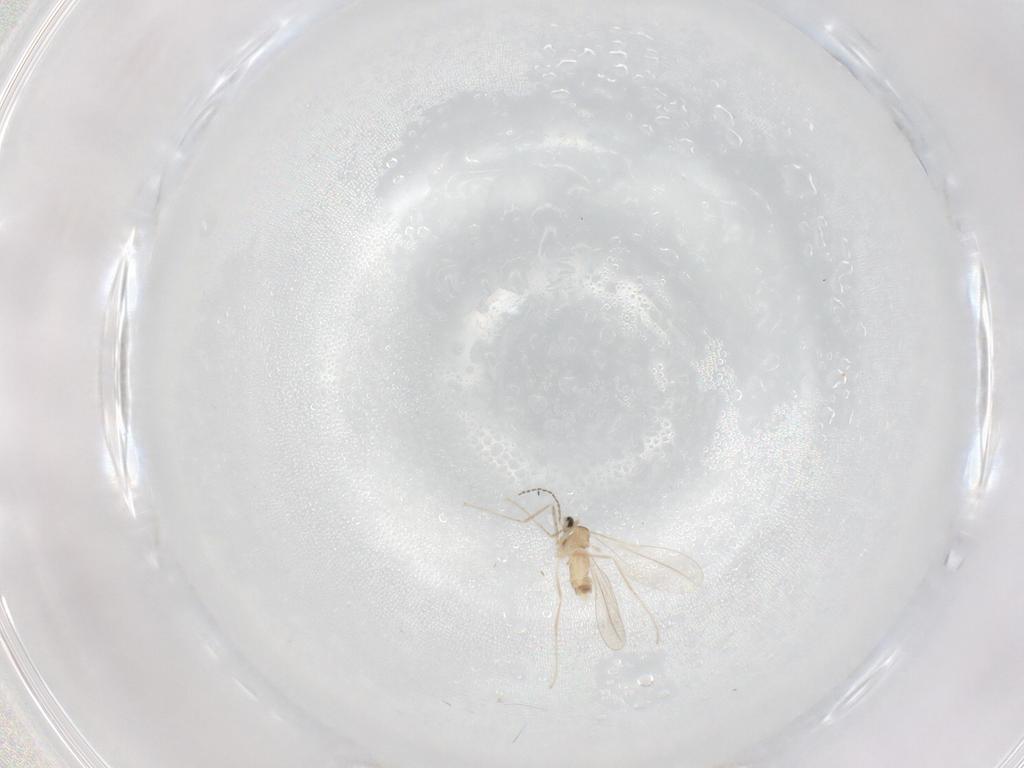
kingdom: Animalia
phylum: Arthropoda
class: Insecta
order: Diptera
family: Cecidomyiidae
